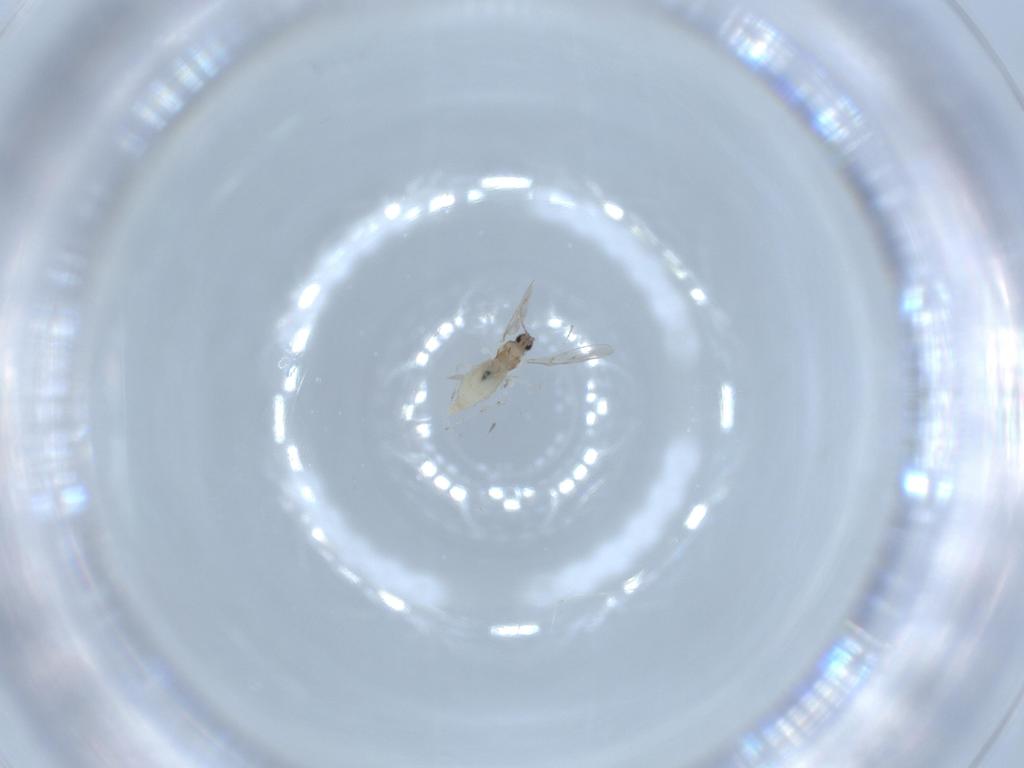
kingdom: Animalia
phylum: Arthropoda
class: Insecta
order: Diptera
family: Cecidomyiidae
